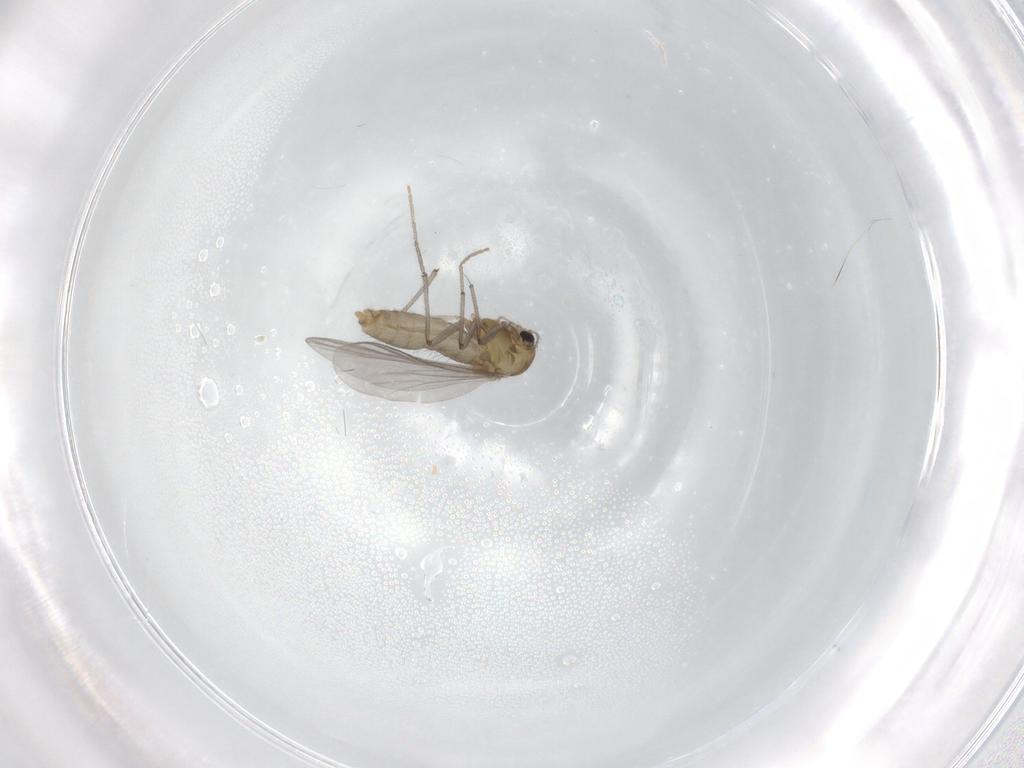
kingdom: Animalia
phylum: Arthropoda
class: Insecta
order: Diptera
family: Chironomidae
